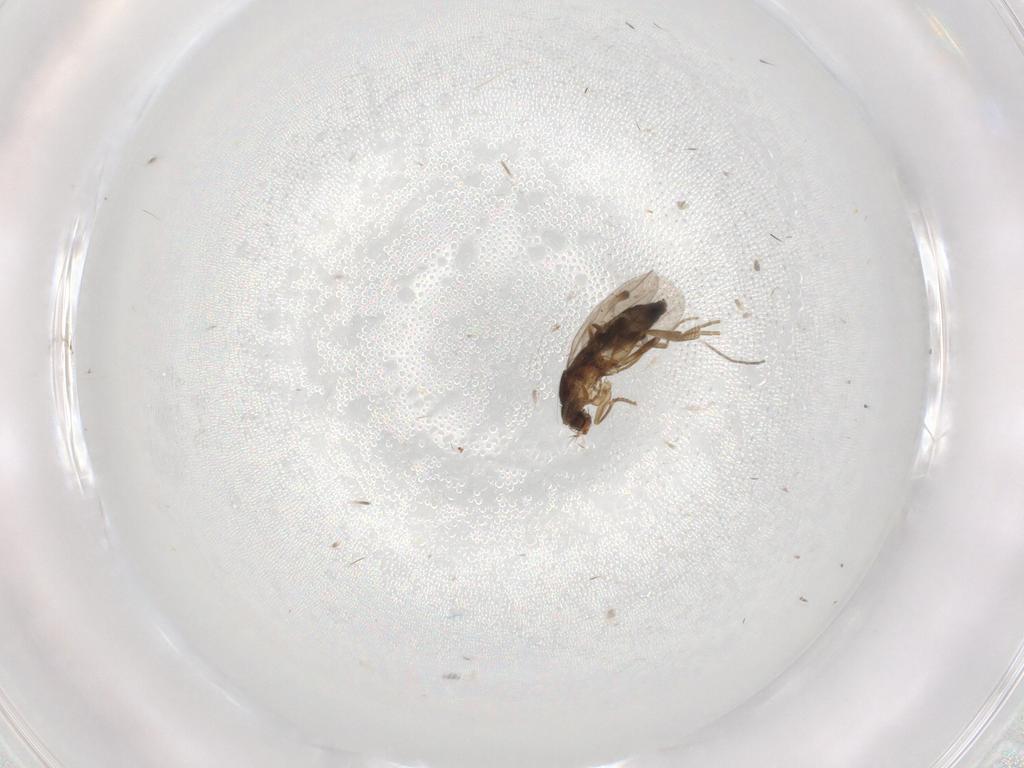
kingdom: Animalia
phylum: Arthropoda
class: Insecta
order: Diptera
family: Phoridae
